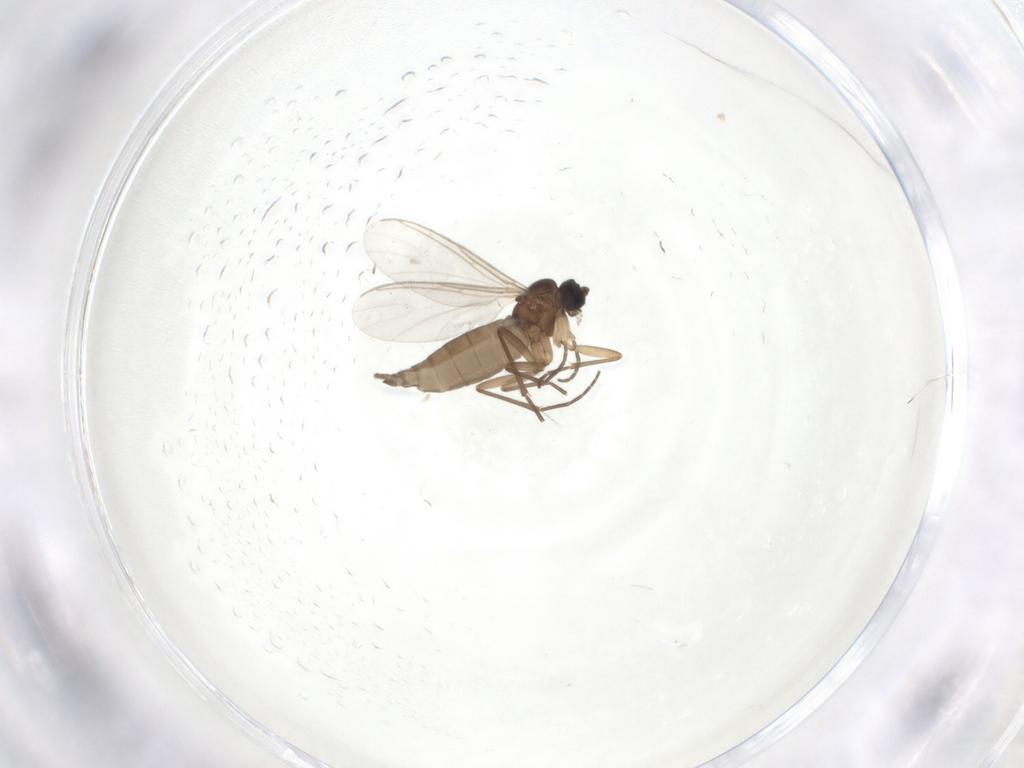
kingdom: Animalia
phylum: Arthropoda
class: Insecta
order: Diptera
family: Sciaridae
